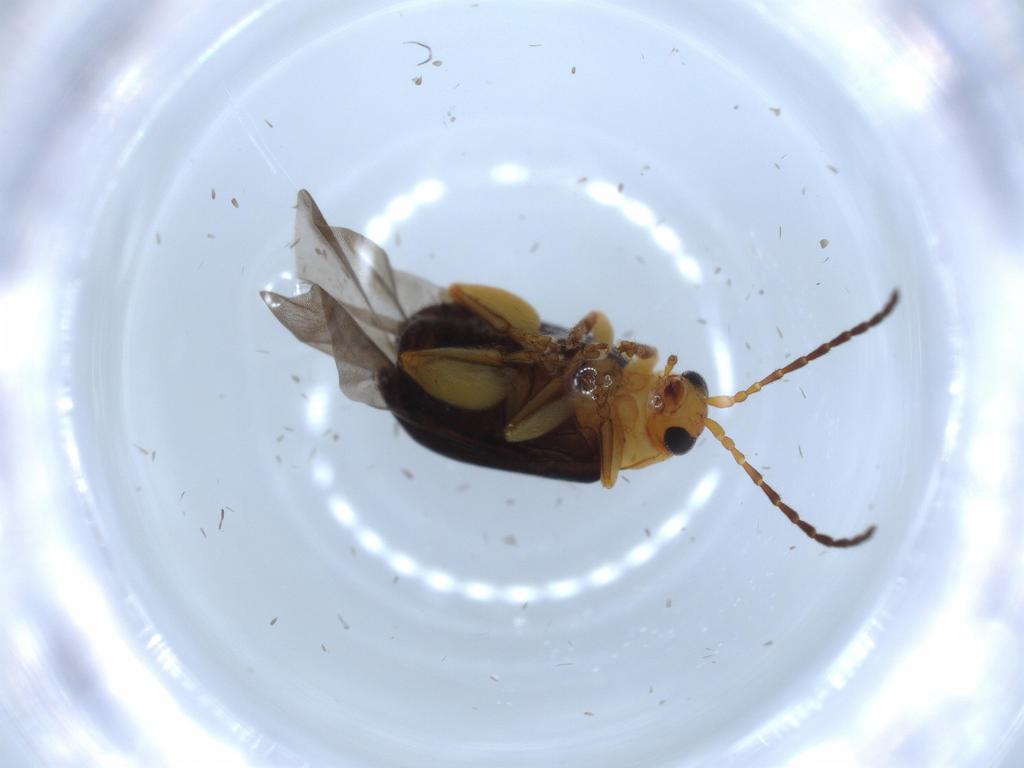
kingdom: Animalia
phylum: Arthropoda
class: Insecta
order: Coleoptera
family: Chrysomelidae
